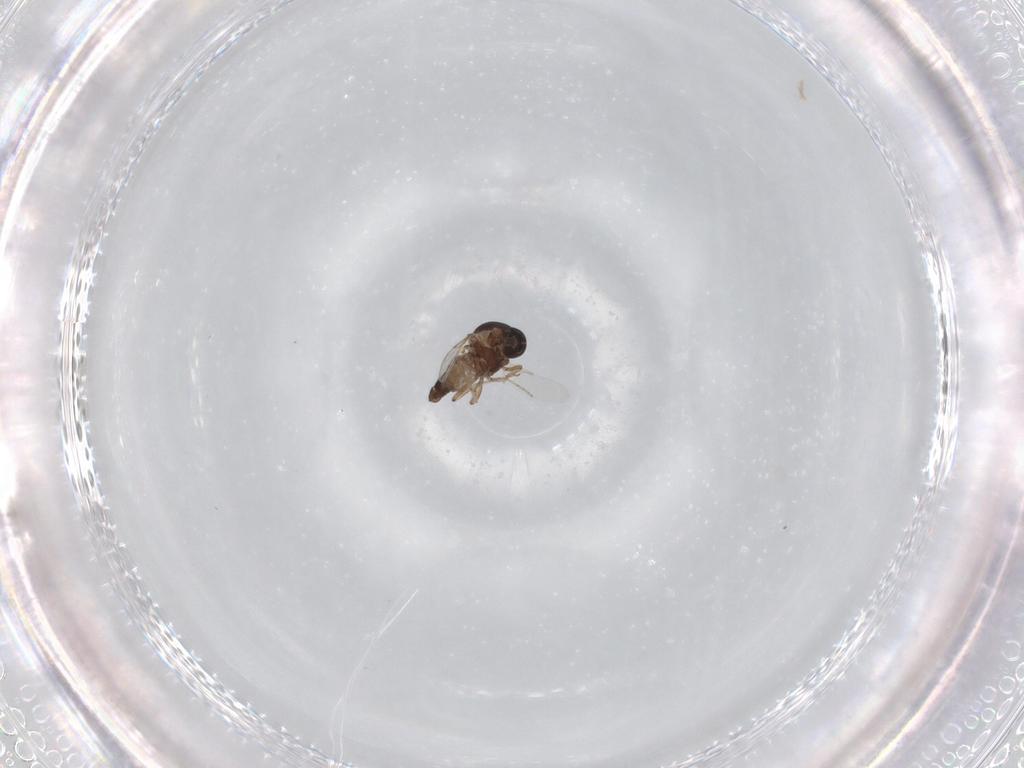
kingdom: Animalia
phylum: Arthropoda
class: Insecta
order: Diptera
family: Ceratopogonidae
